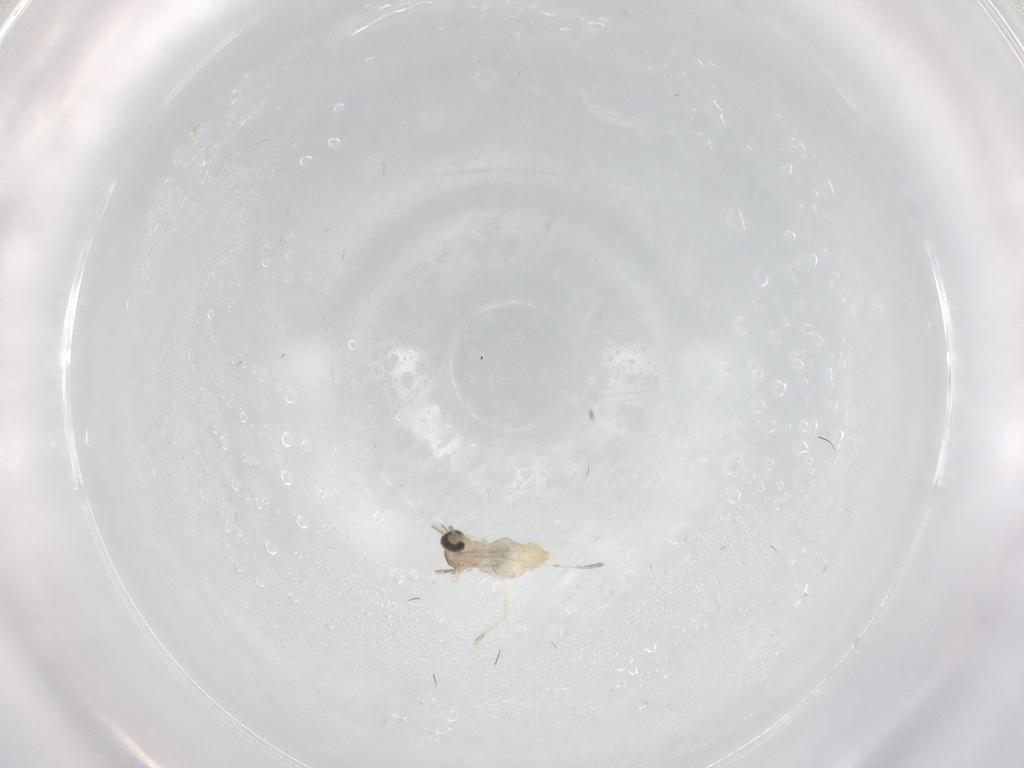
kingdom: Animalia
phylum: Arthropoda
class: Insecta
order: Diptera
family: Cecidomyiidae
